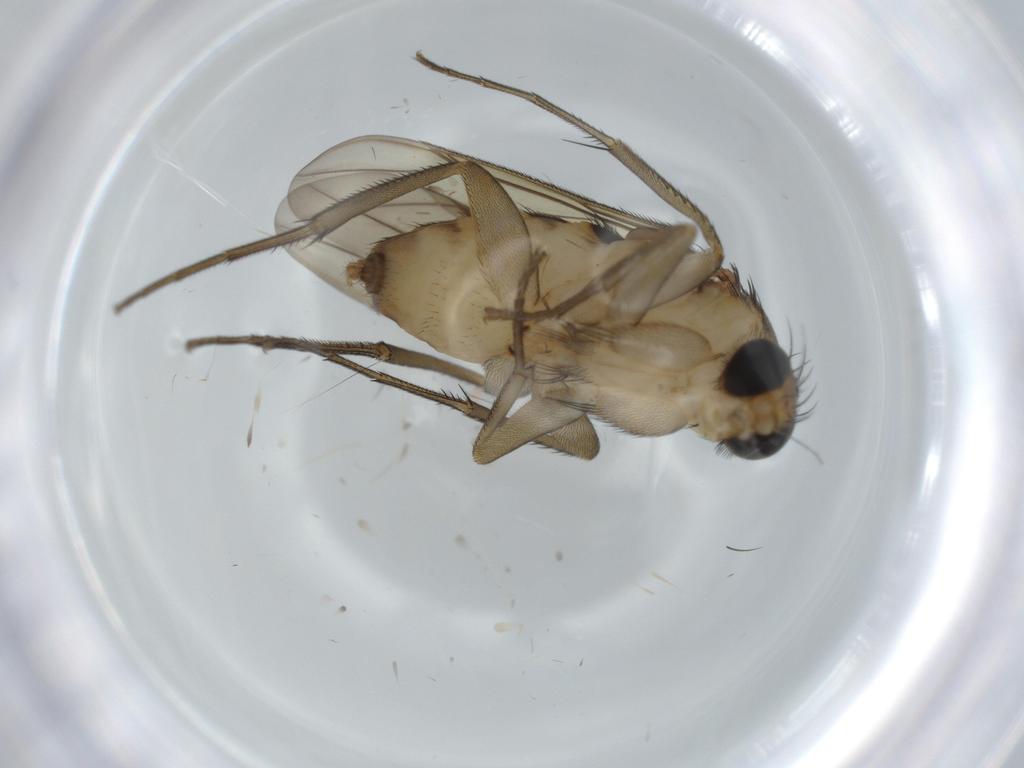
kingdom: Animalia
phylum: Arthropoda
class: Insecta
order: Diptera
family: Phoridae
